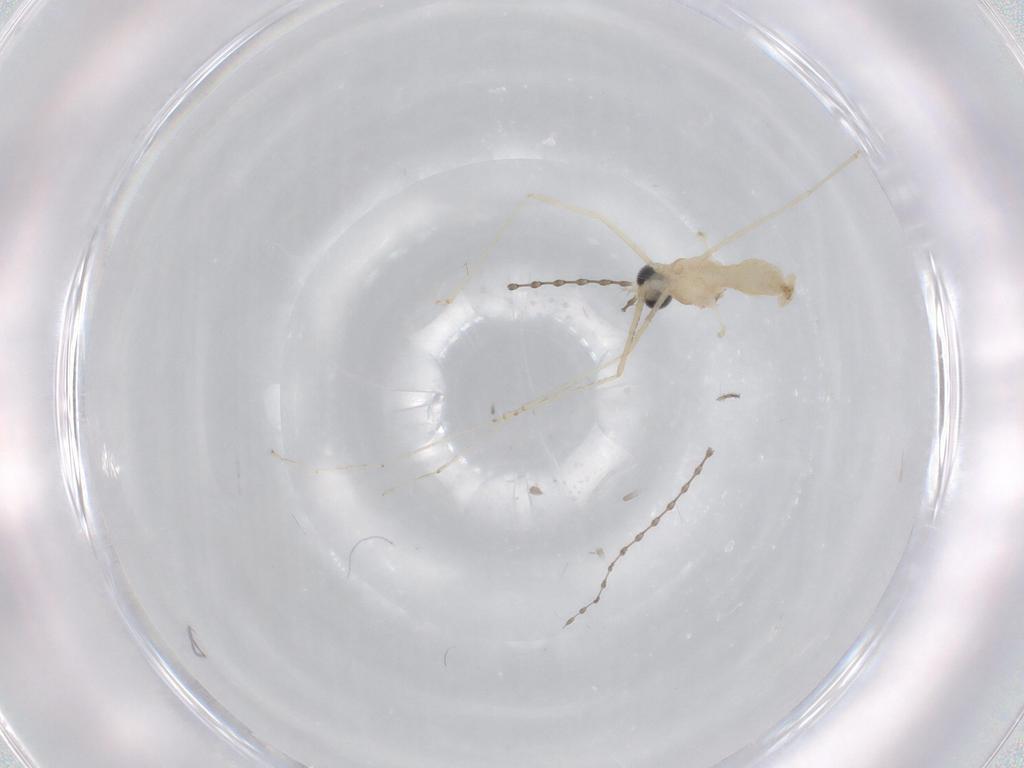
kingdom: Animalia
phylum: Arthropoda
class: Insecta
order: Diptera
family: Cecidomyiidae
